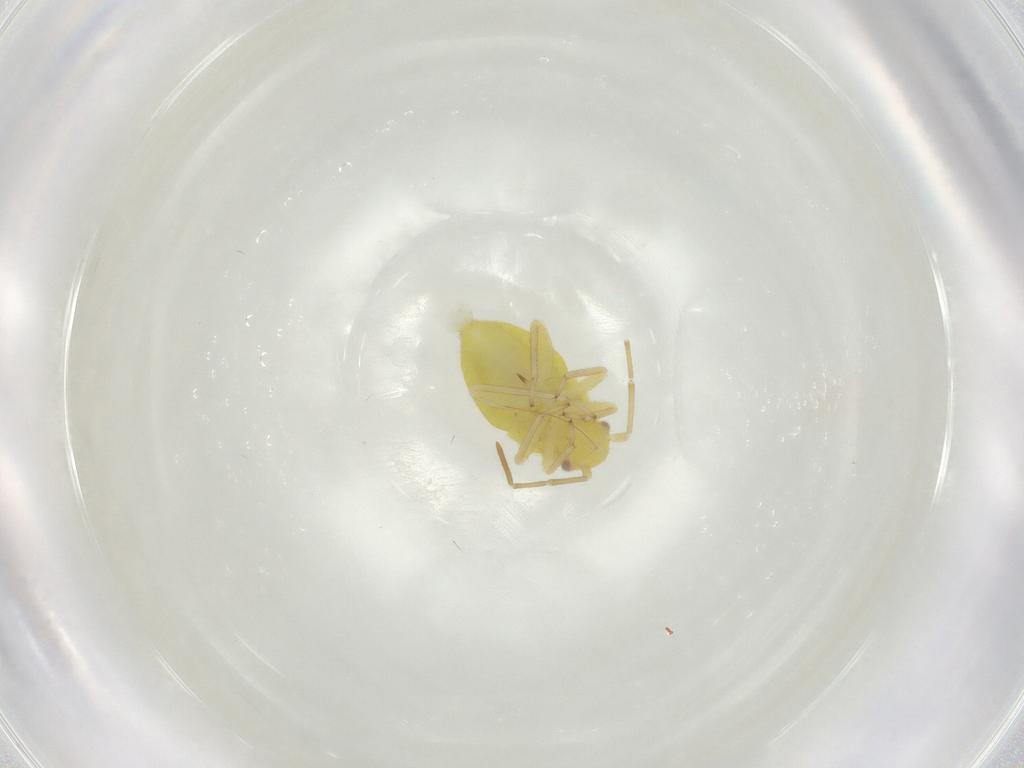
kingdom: Animalia
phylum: Arthropoda
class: Insecta
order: Hemiptera
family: Miridae
